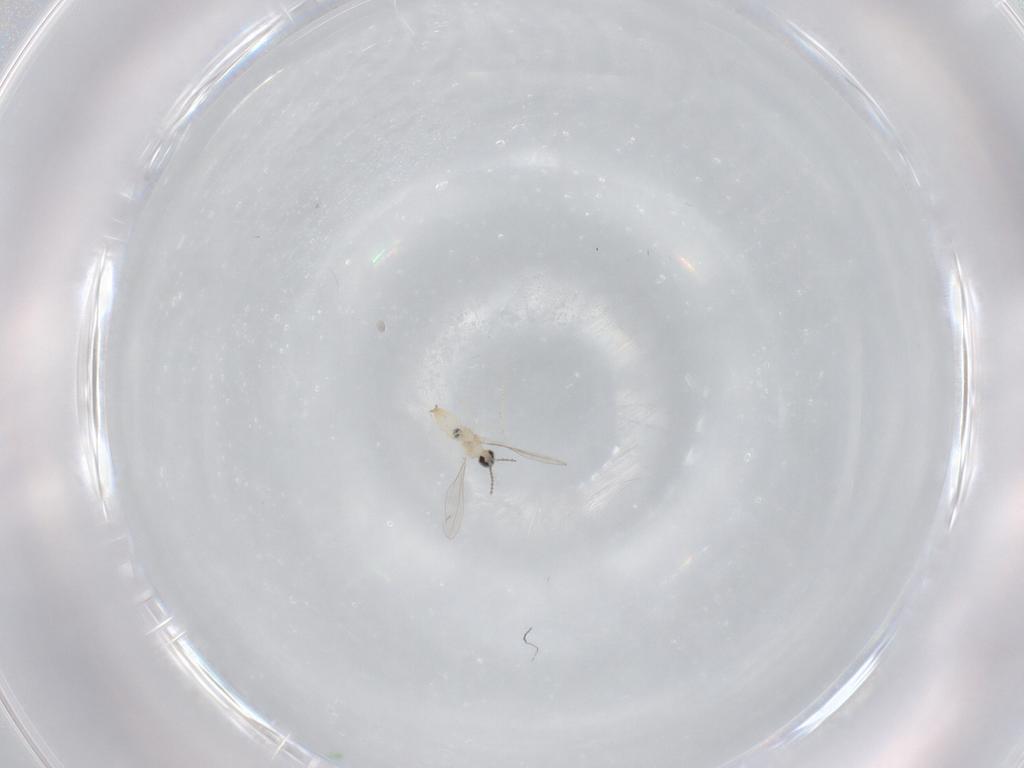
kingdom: Animalia
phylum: Arthropoda
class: Insecta
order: Diptera
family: Cecidomyiidae
